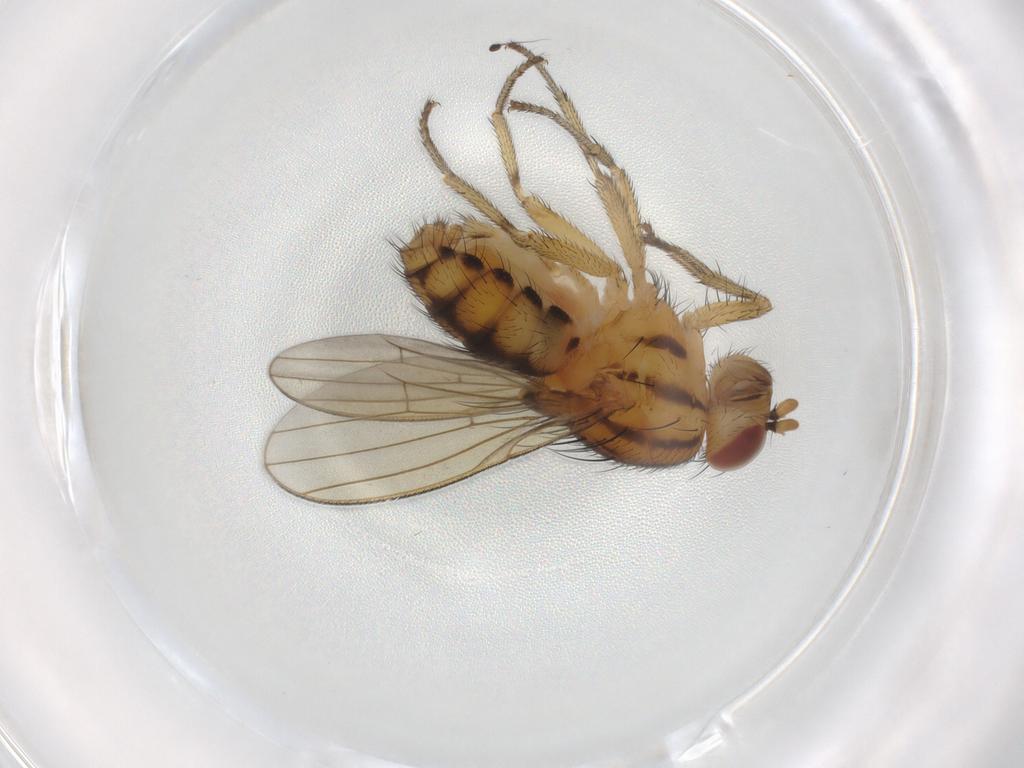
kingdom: Animalia
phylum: Arthropoda
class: Insecta
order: Diptera
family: Dolichopodidae
